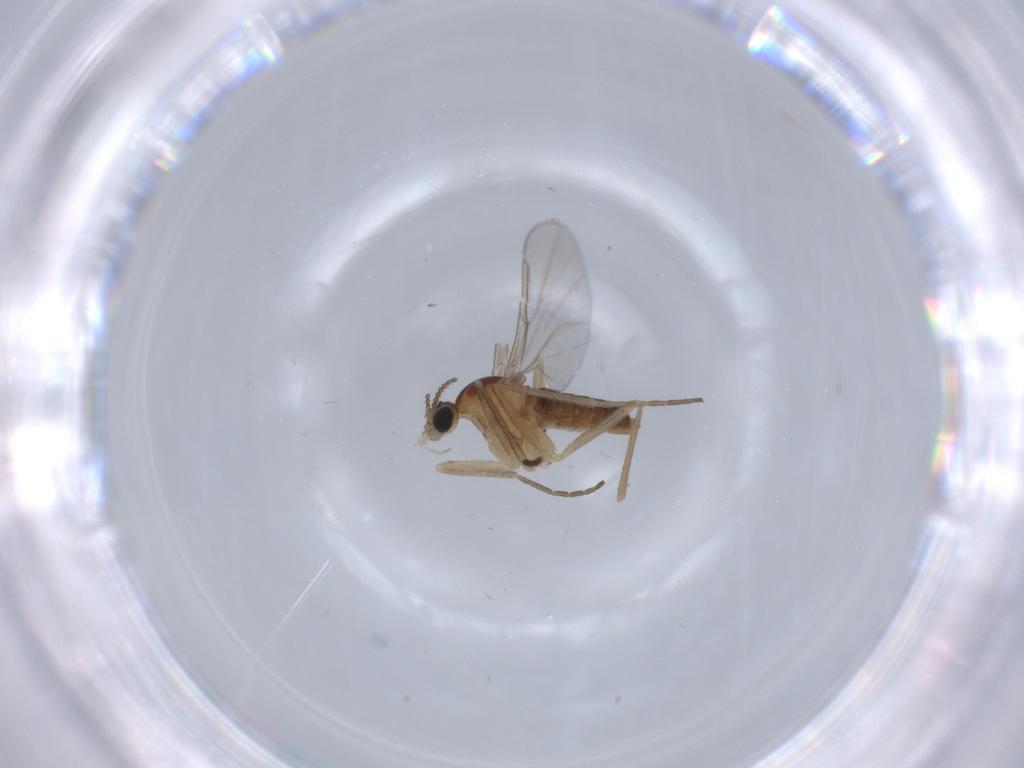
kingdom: Animalia
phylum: Arthropoda
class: Insecta
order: Diptera
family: Cecidomyiidae
